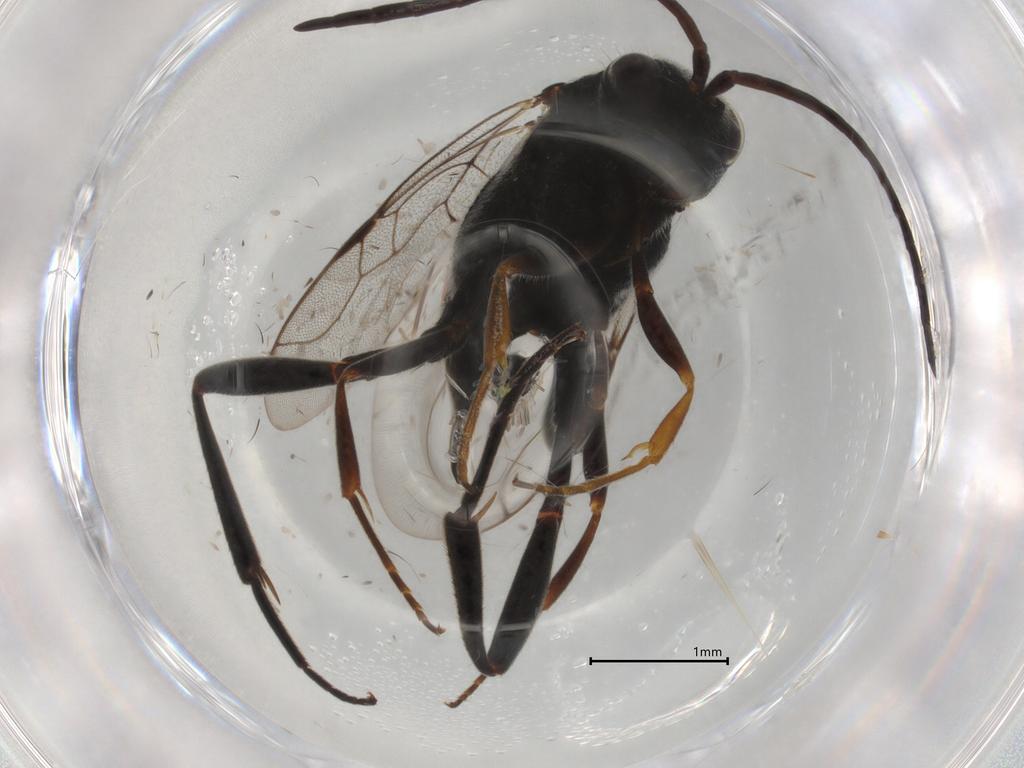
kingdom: Animalia
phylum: Arthropoda
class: Insecta
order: Hymenoptera
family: Evaniidae
